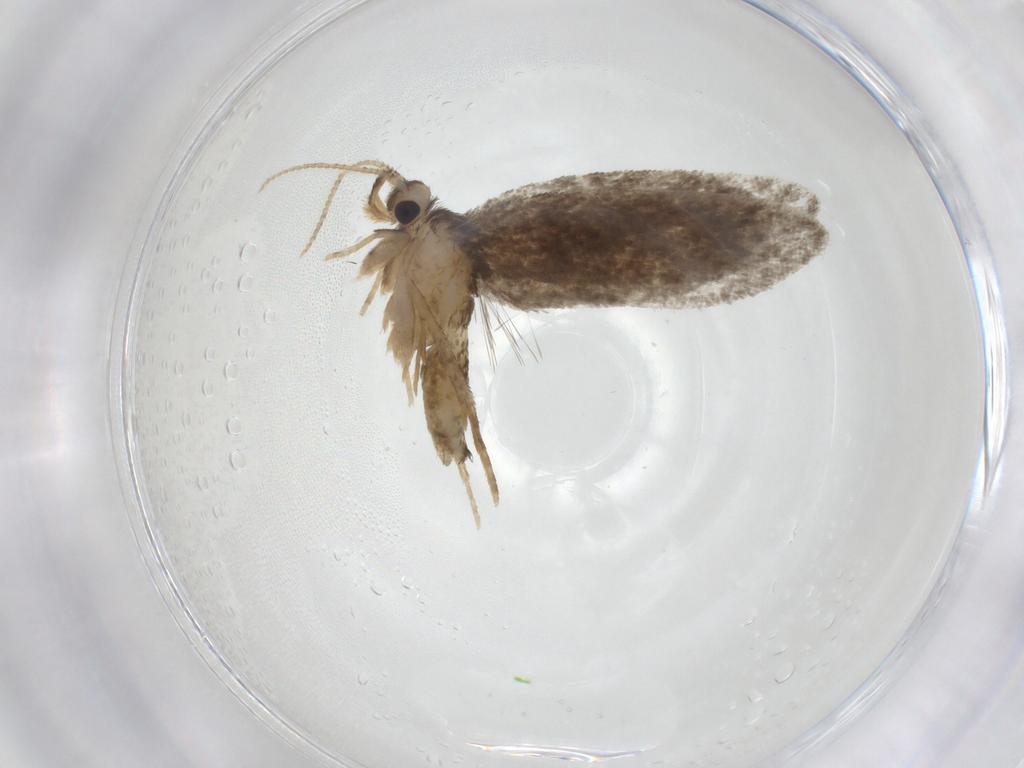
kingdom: Animalia
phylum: Arthropoda
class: Insecta
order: Lepidoptera
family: Psychidae
